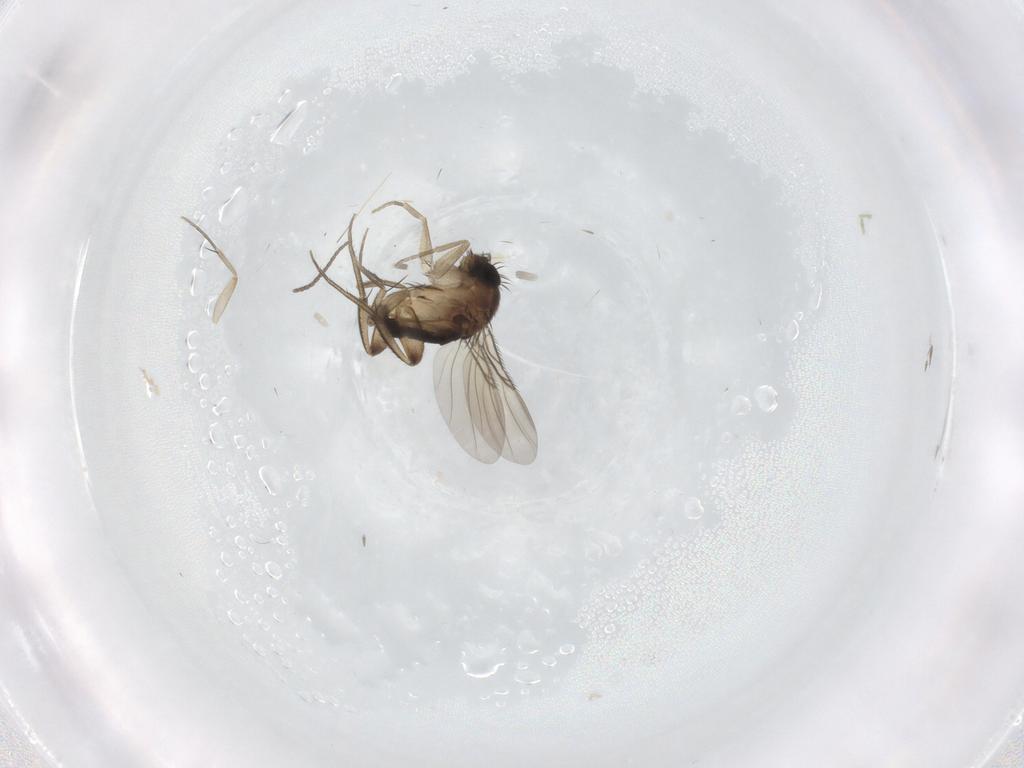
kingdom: Animalia
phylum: Arthropoda
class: Insecta
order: Diptera
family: Phoridae
